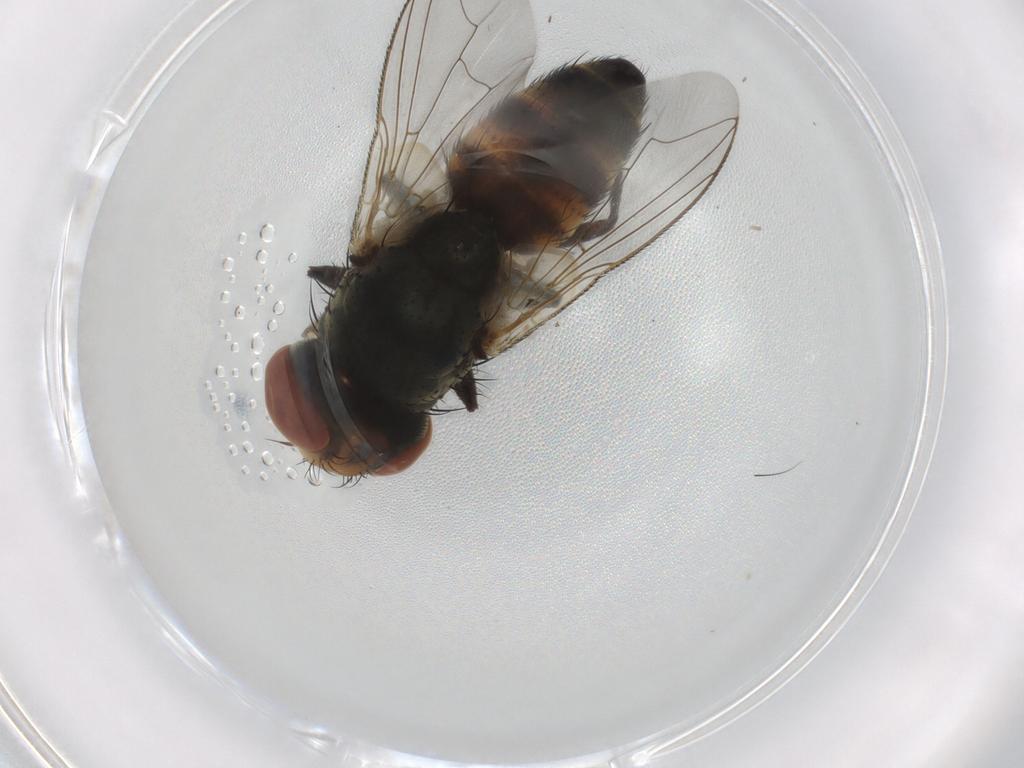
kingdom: Animalia
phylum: Arthropoda
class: Insecta
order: Diptera
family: Sarcophagidae
